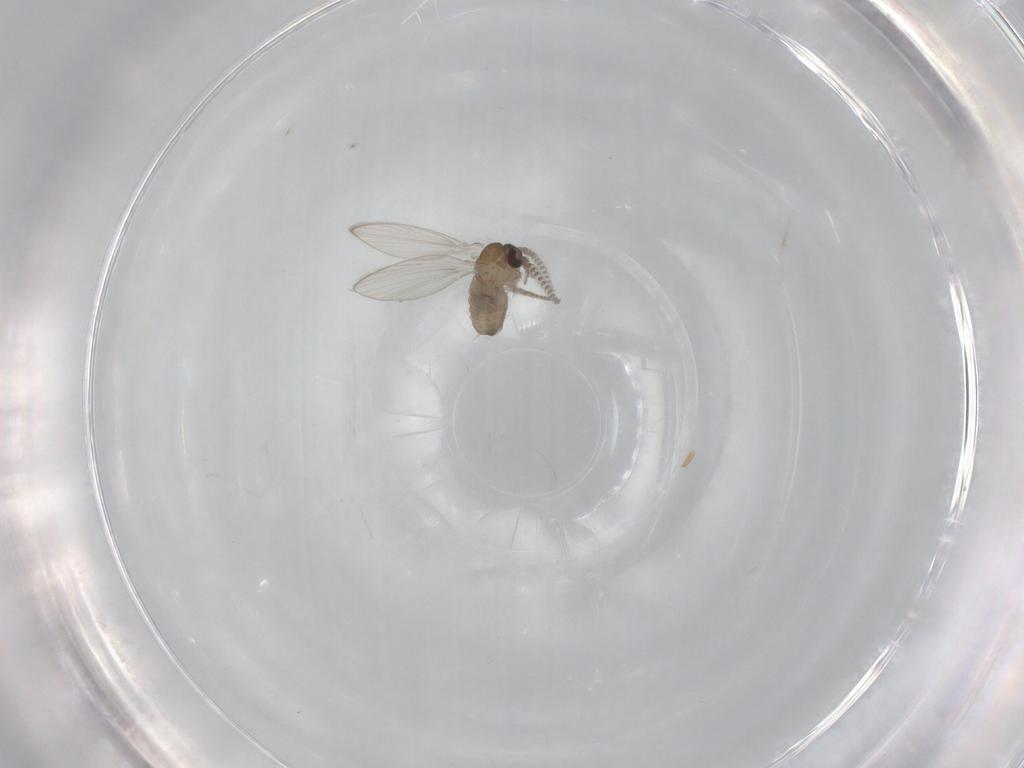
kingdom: Animalia
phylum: Arthropoda
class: Insecta
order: Diptera
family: Psychodidae
